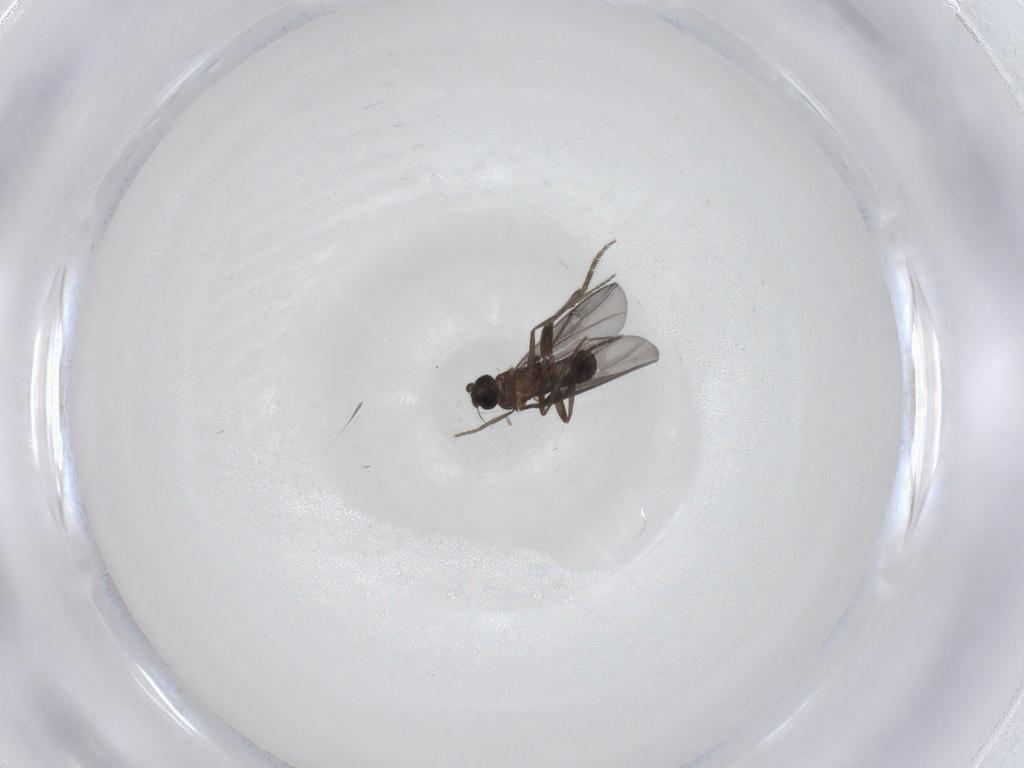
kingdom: Animalia
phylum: Arthropoda
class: Insecta
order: Diptera
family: Phoridae
